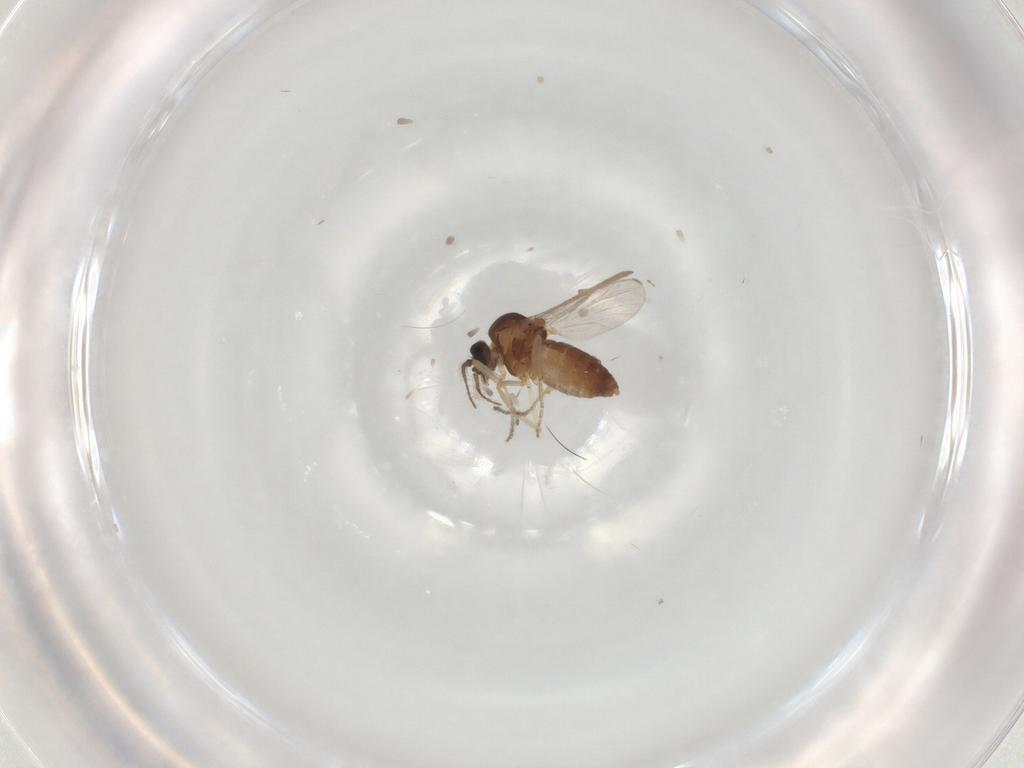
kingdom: Animalia
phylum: Arthropoda
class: Insecta
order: Diptera
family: Ceratopogonidae
